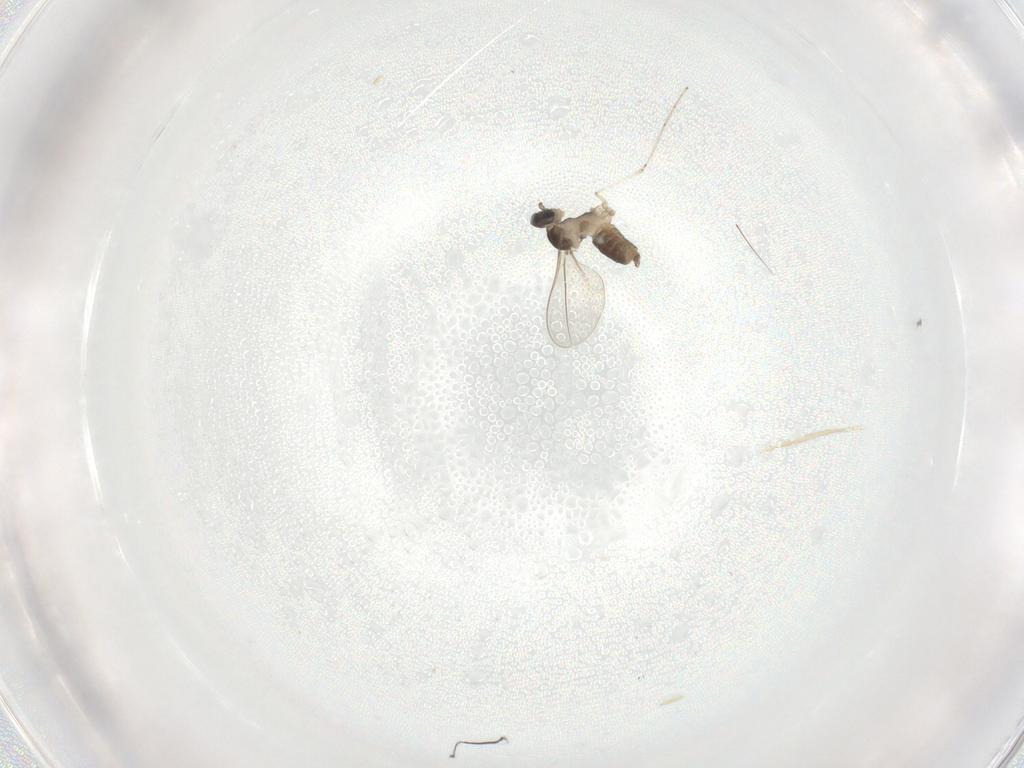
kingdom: Animalia
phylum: Arthropoda
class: Insecta
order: Diptera
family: Cecidomyiidae
